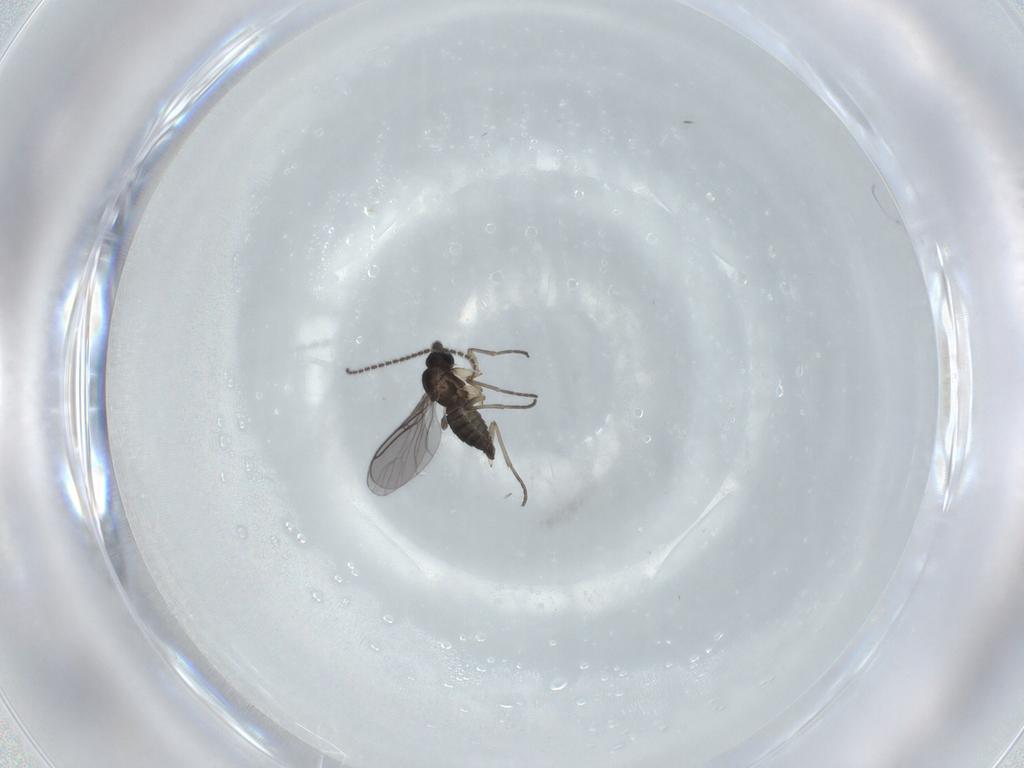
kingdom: Animalia
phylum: Arthropoda
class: Insecta
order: Diptera
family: Sciaridae
